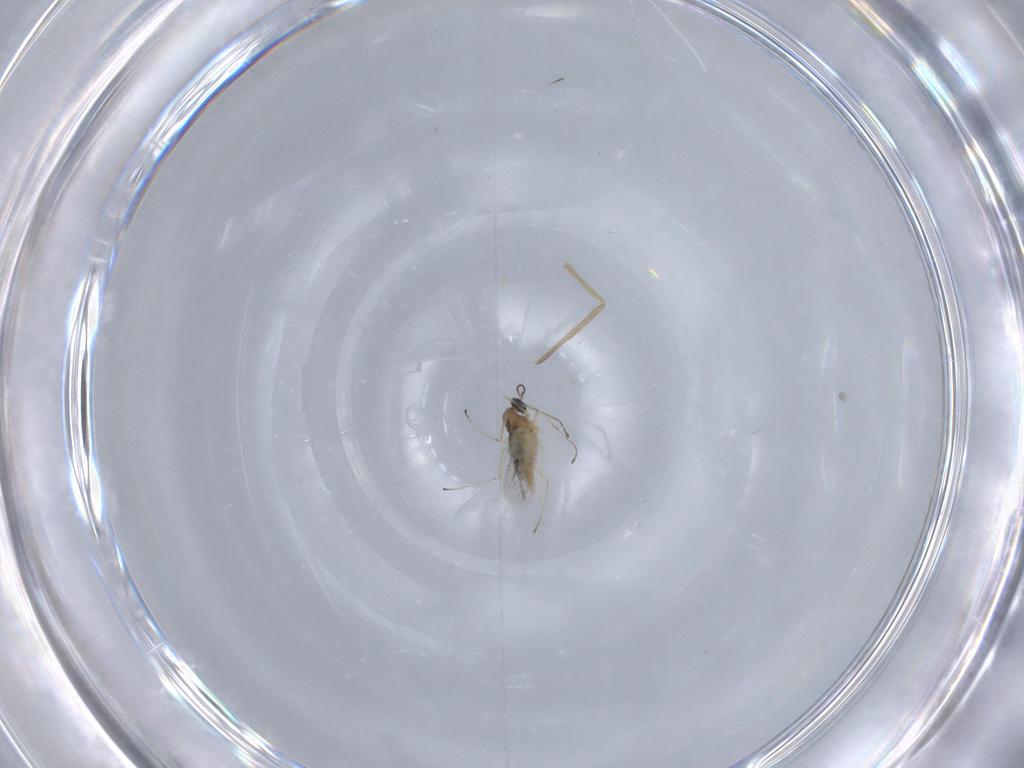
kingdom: Animalia
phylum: Arthropoda
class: Insecta
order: Diptera
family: Cecidomyiidae
